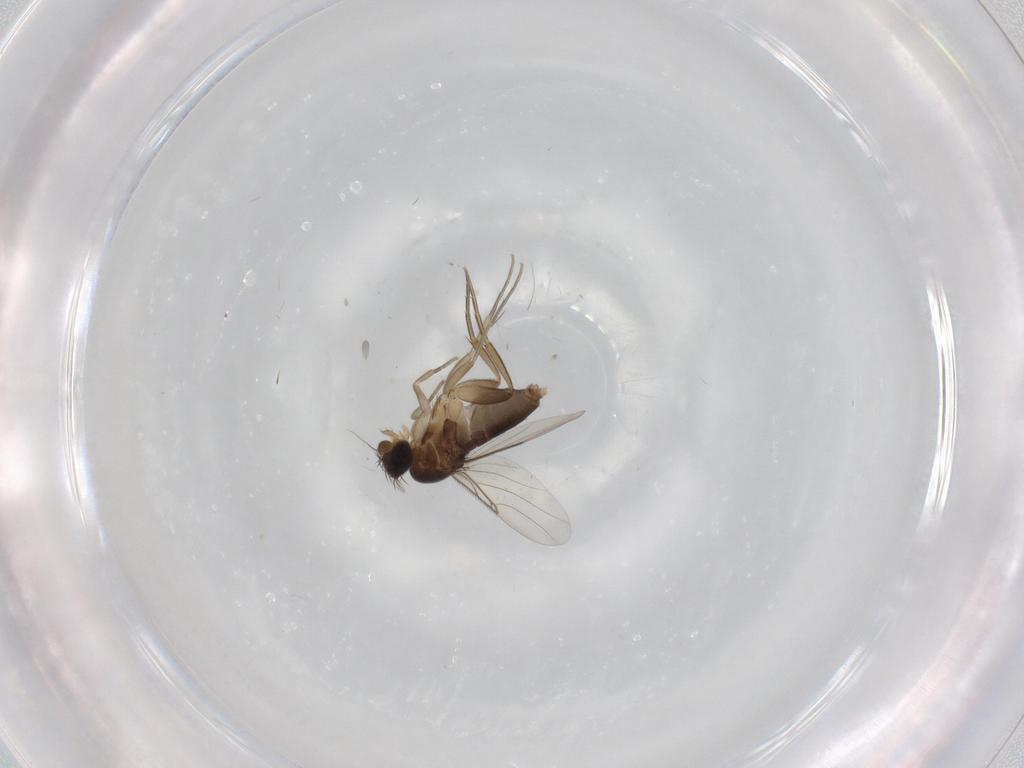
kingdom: Animalia
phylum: Arthropoda
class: Insecta
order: Diptera
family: Phoridae
